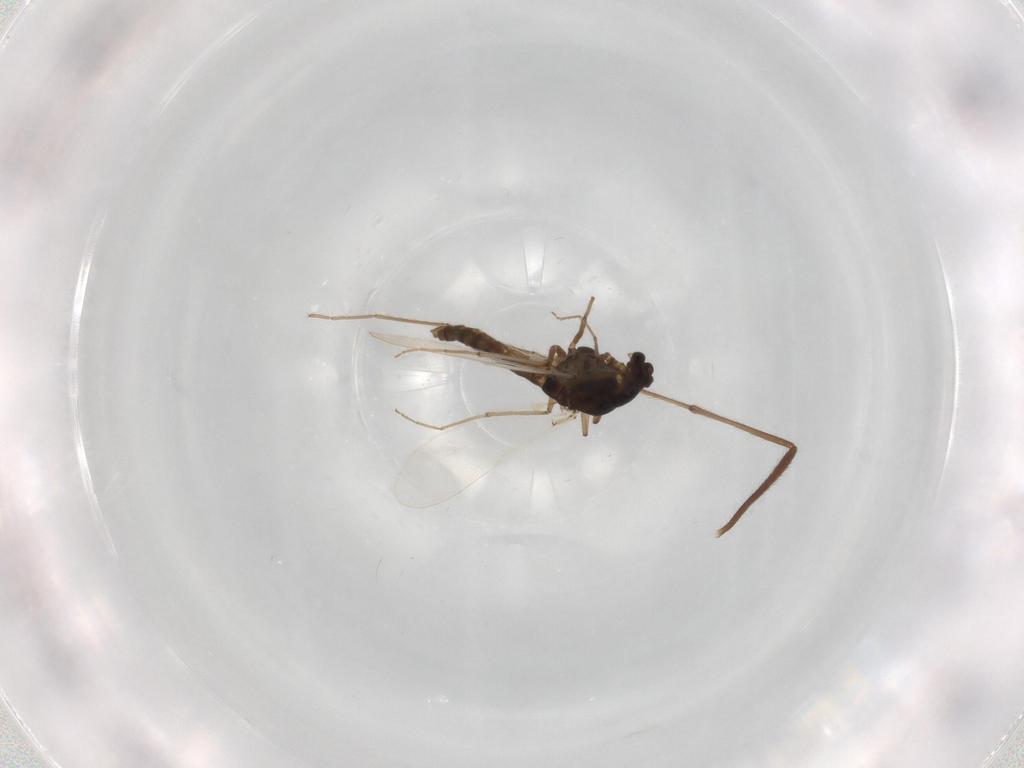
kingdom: Animalia
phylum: Arthropoda
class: Insecta
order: Diptera
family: Chironomidae
